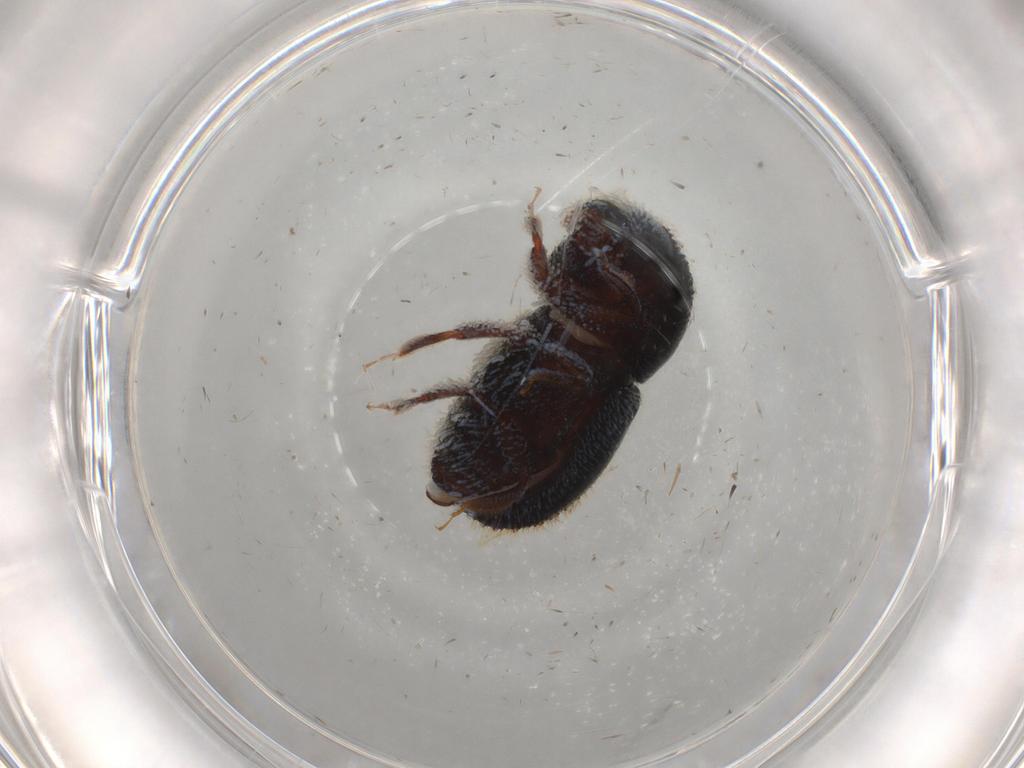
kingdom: Animalia
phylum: Arthropoda
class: Insecta
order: Coleoptera
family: Curculionidae
